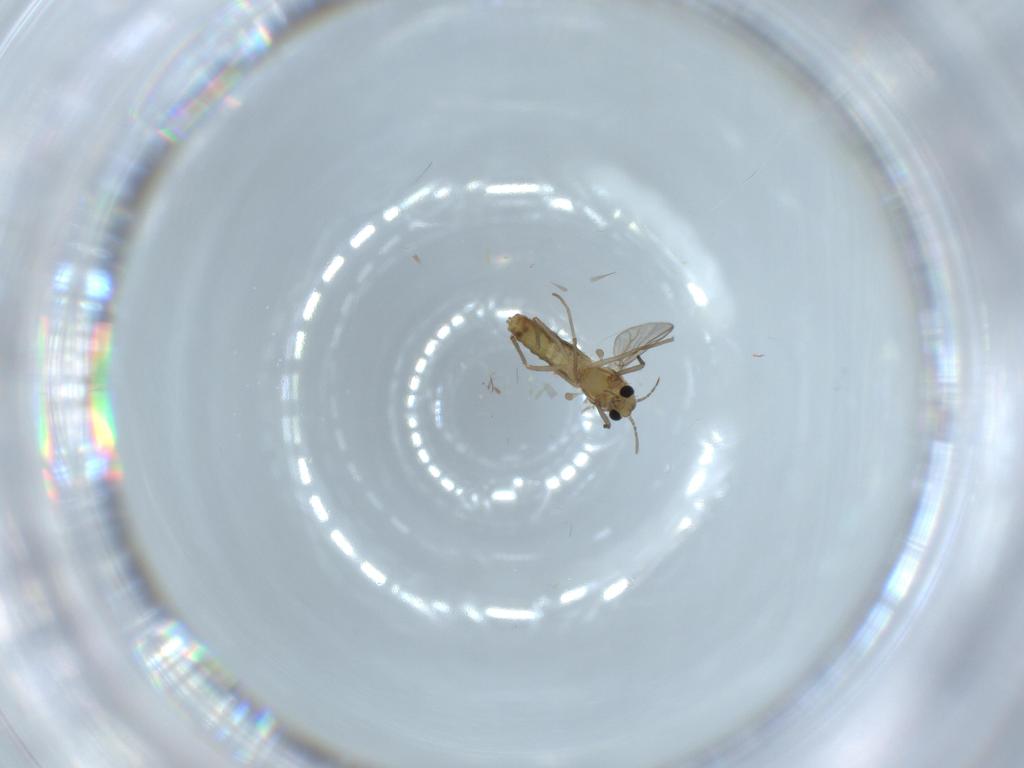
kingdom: Animalia
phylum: Arthropoda
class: Insecta
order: Diptera
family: Chironomidae
